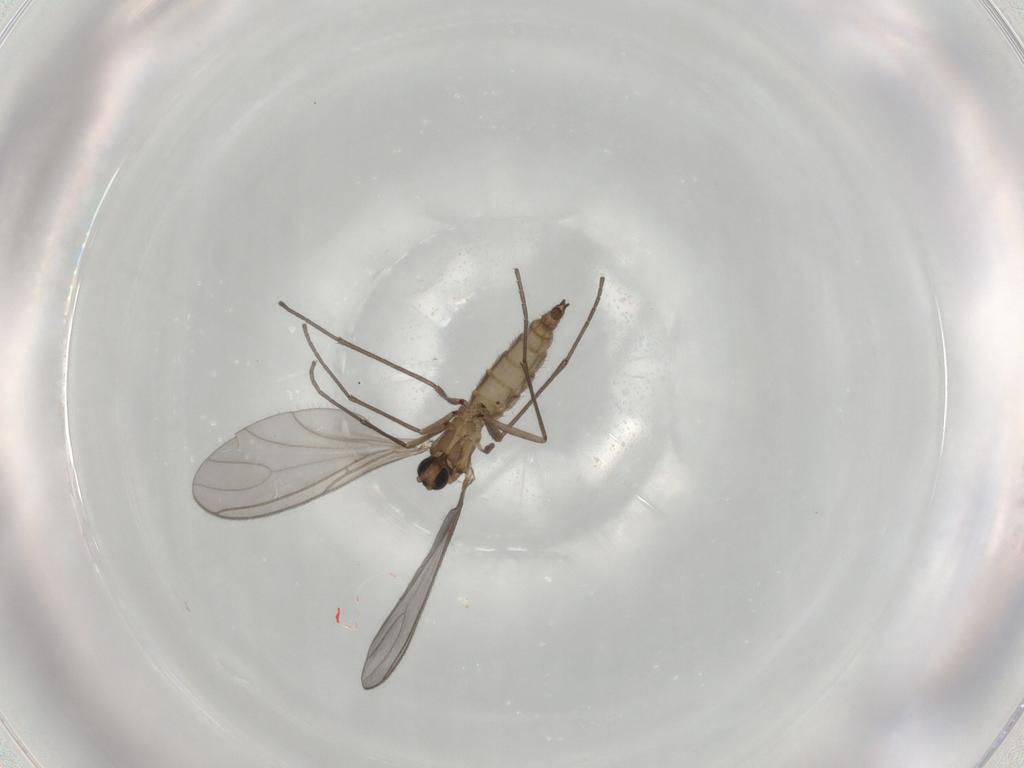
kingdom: Animalia
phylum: Arthropoda
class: Insecta
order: Diptera
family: Sciaridae
